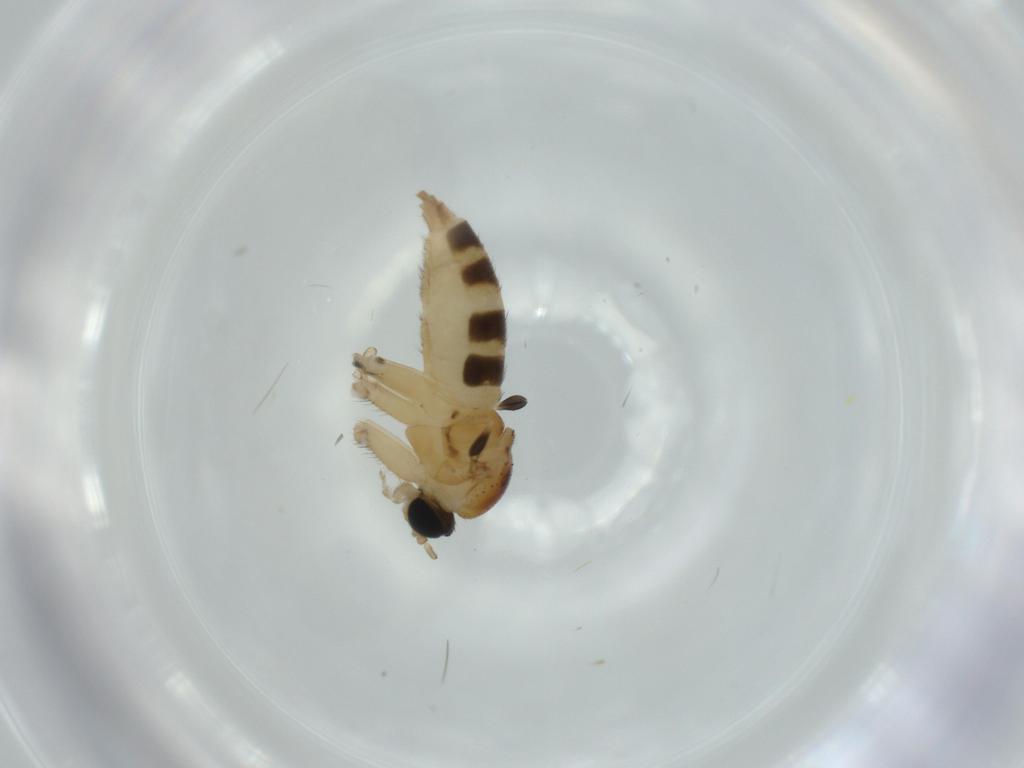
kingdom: Animalia
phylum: Arthropoda
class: Insecta
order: Diptera
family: Sciaridae
